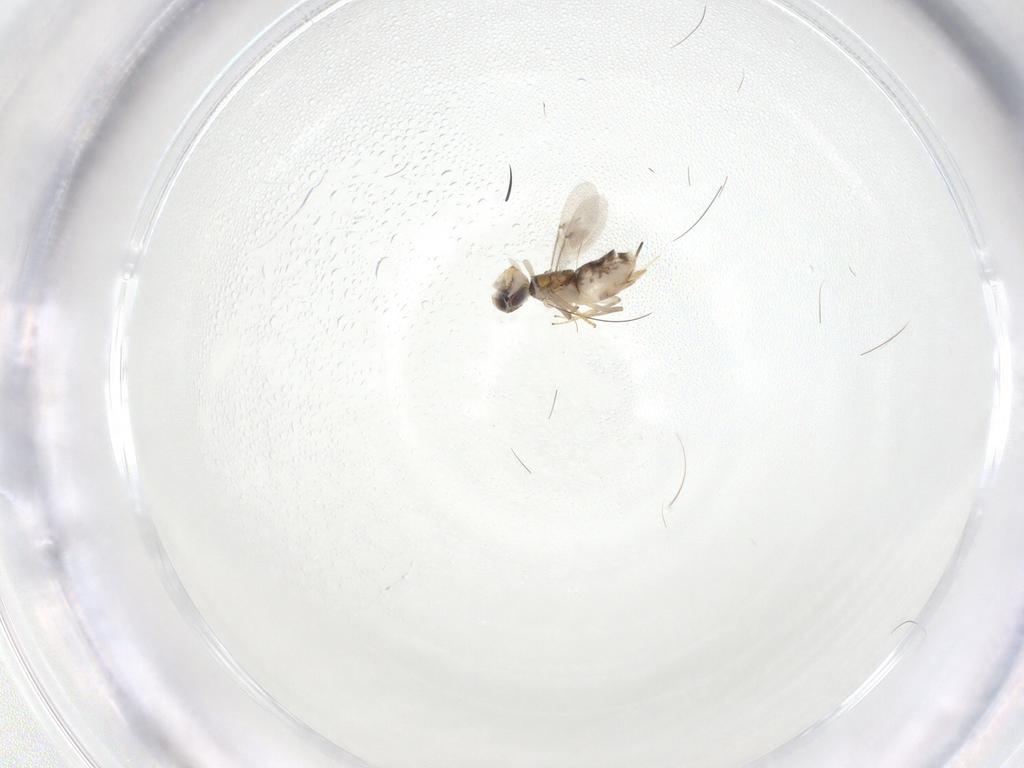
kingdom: Animalia
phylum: Arthropoda
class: Insecta
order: Hymenoptera
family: Encyrtidae
